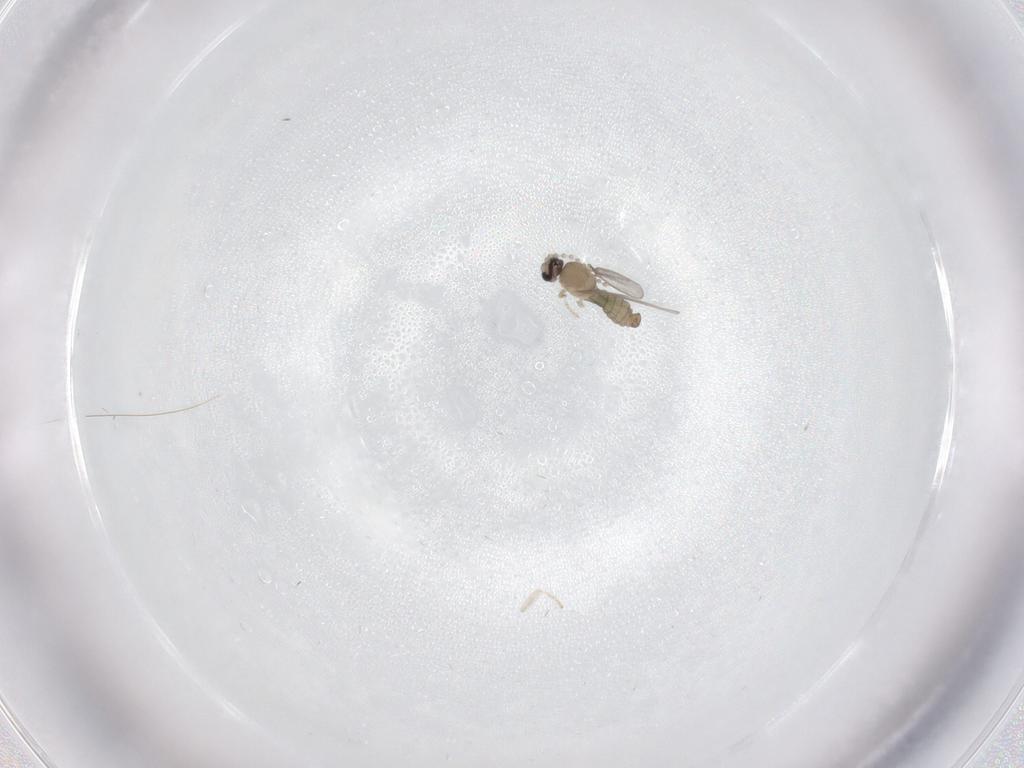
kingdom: Animalia
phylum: Arthropoda
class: Insecta
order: Diptera
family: Cecidomyiidae
